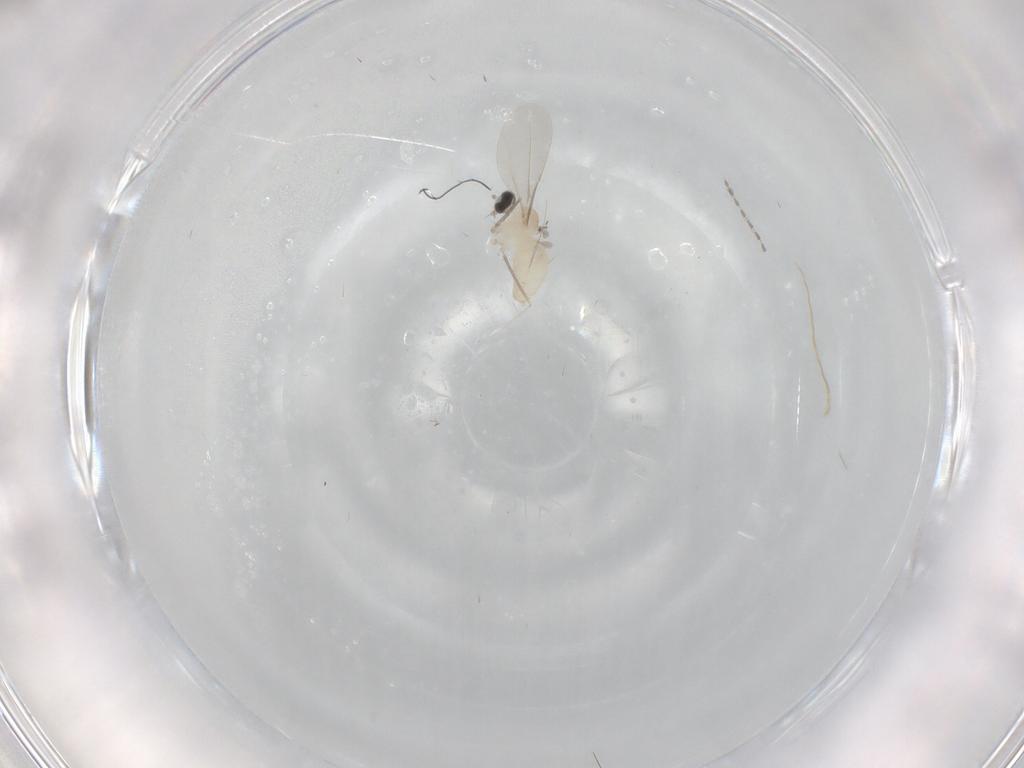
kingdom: Animalia
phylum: Arthropoda
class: Insecta
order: Diptera
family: Cecidomyiidae
